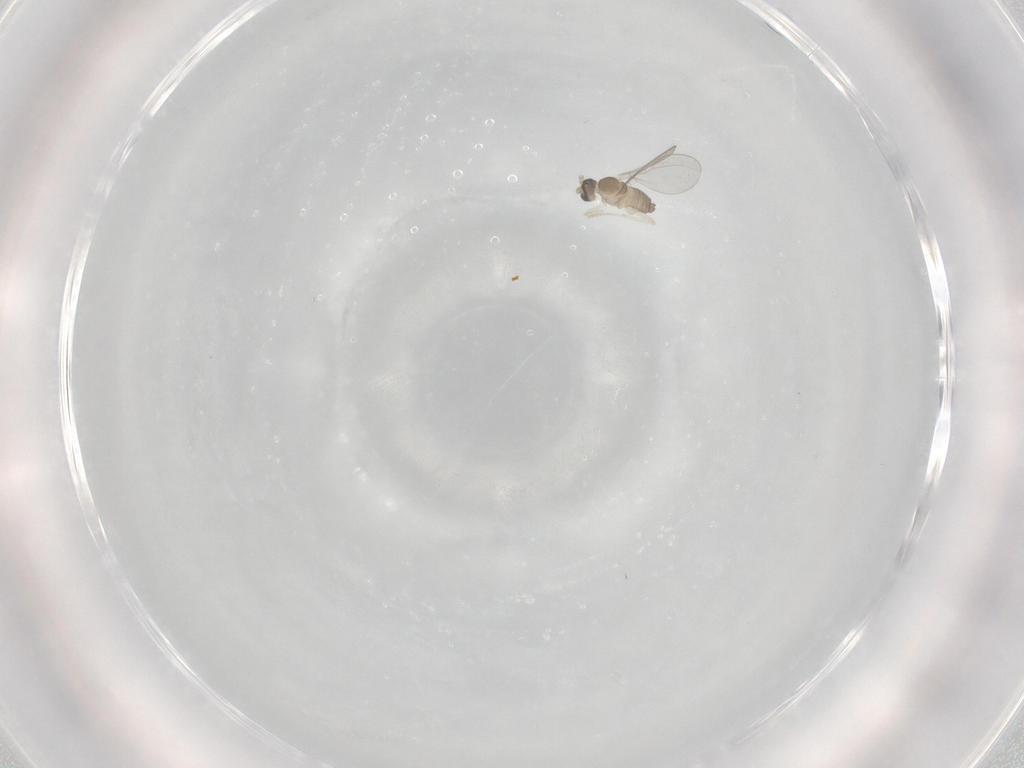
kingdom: Animalia
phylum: Arthropoda
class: Insecta
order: Diptera
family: Cecidomyiidae
